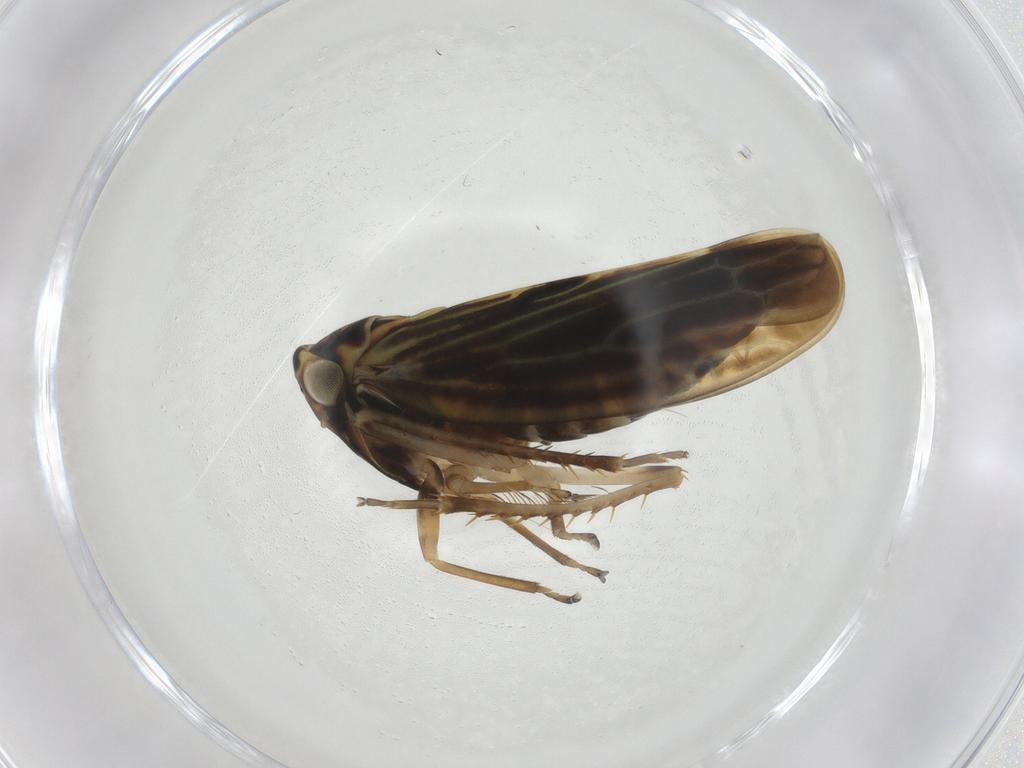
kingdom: Animalia
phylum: Arthropoda
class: Insecta
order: Hemiptera
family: Cicadellidae
